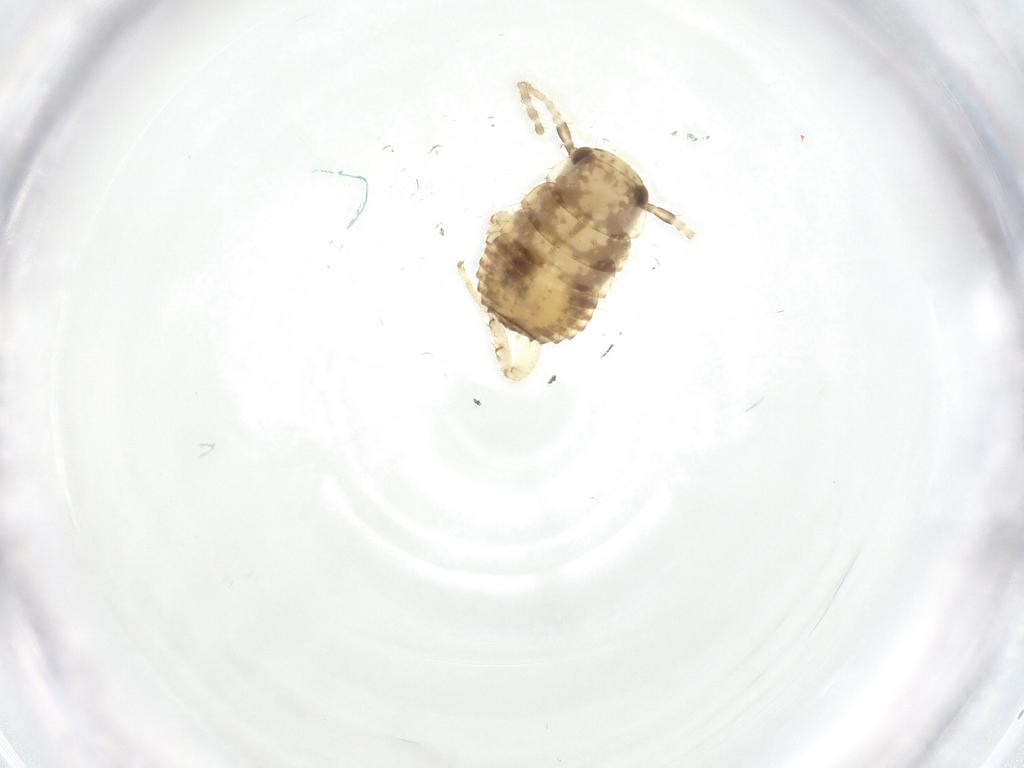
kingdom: Animalia
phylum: Arthropoda
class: Insecta
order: Blattodea
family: Ectobiidae
